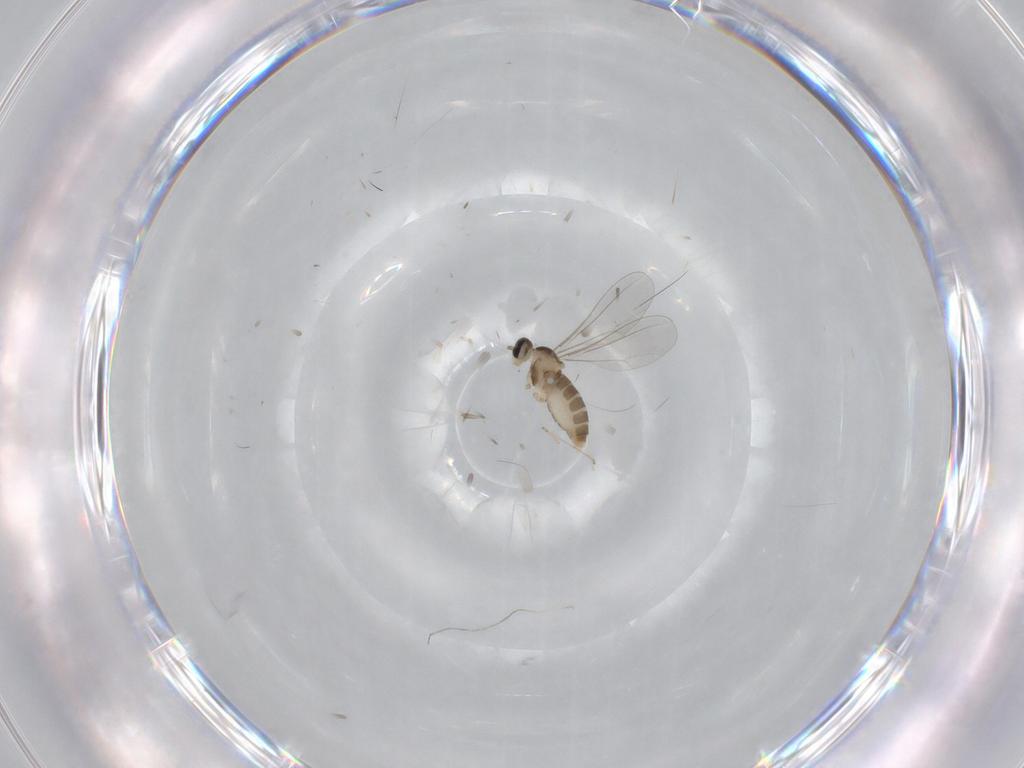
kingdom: Animalia
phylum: Arthropoda
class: Insecta
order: Diptera
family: Cecidomyiidae
